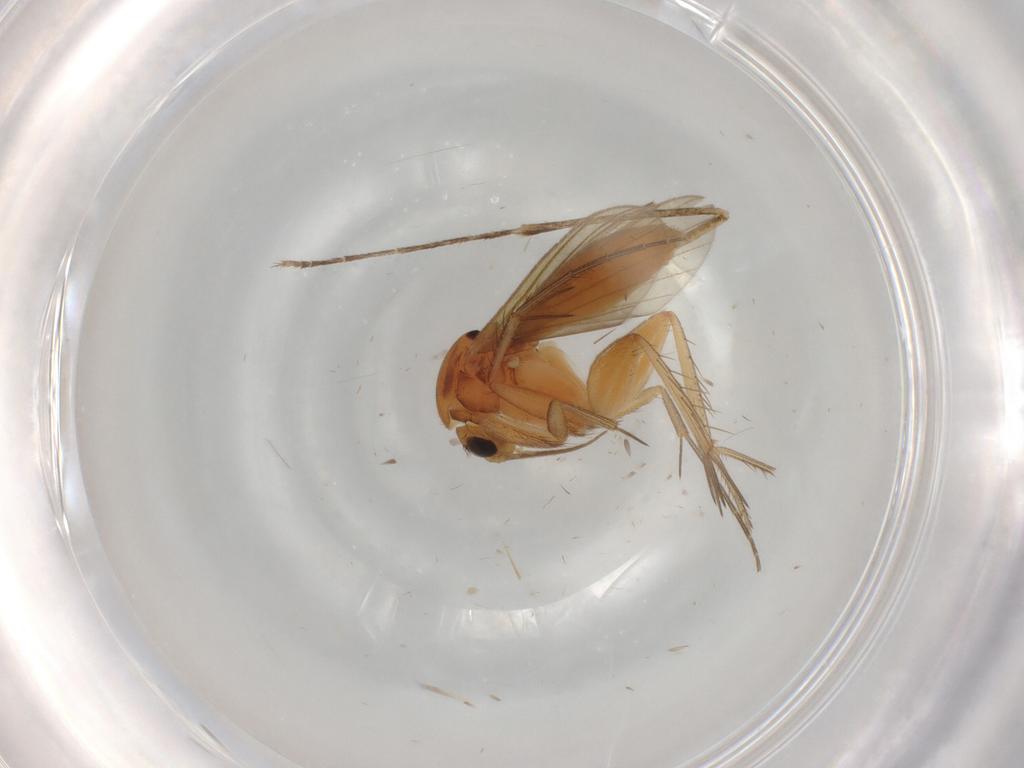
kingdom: Animalia
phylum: Arthropoda
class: Insecta
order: Diptera
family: Mycetophilidae
